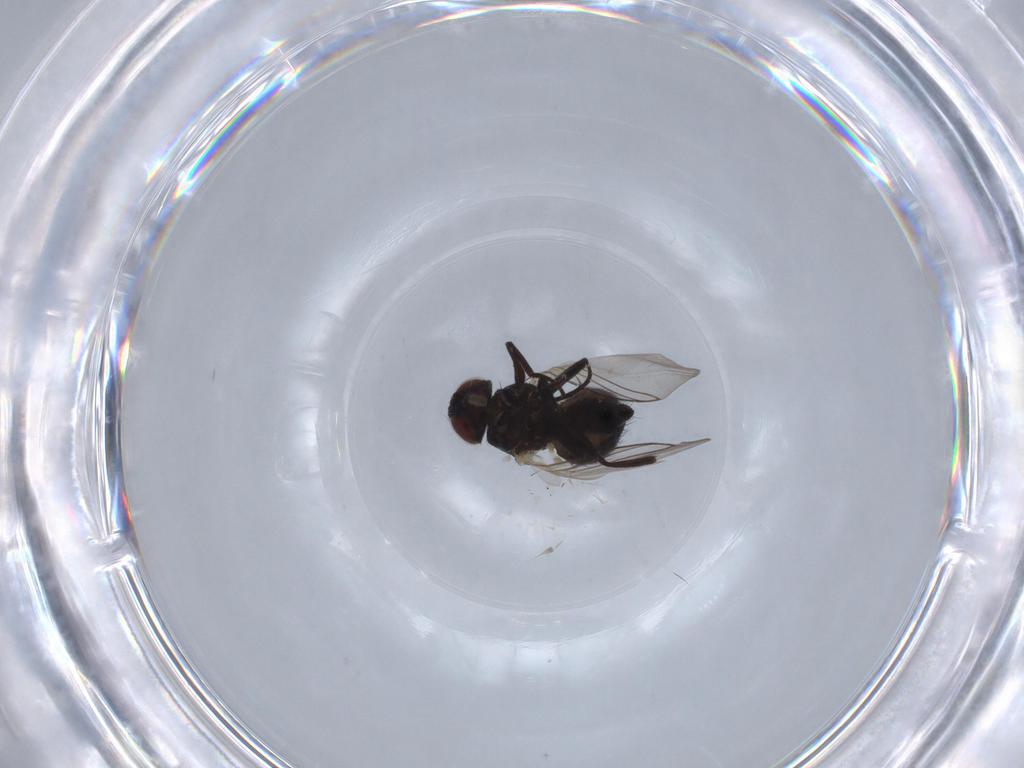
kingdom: Animalia
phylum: Arthropoda
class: Insecta
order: Diptera
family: Agromyzidae
